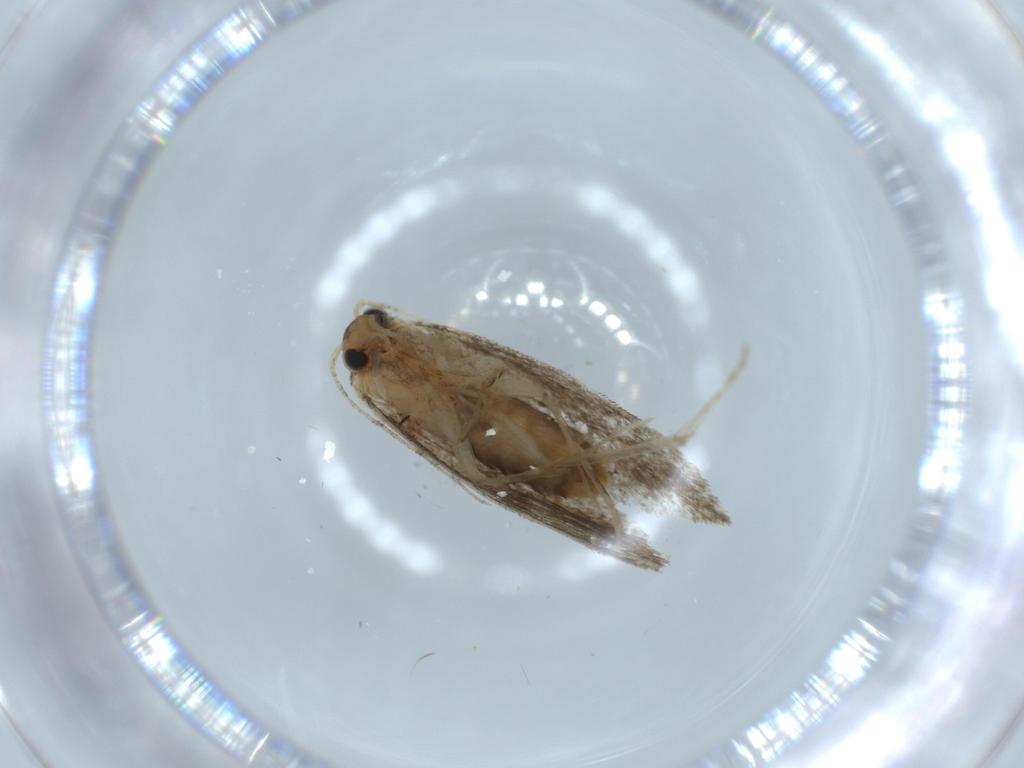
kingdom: Animalia
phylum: Arthropoda
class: Insecta
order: Lepidoptera
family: Tineidae
